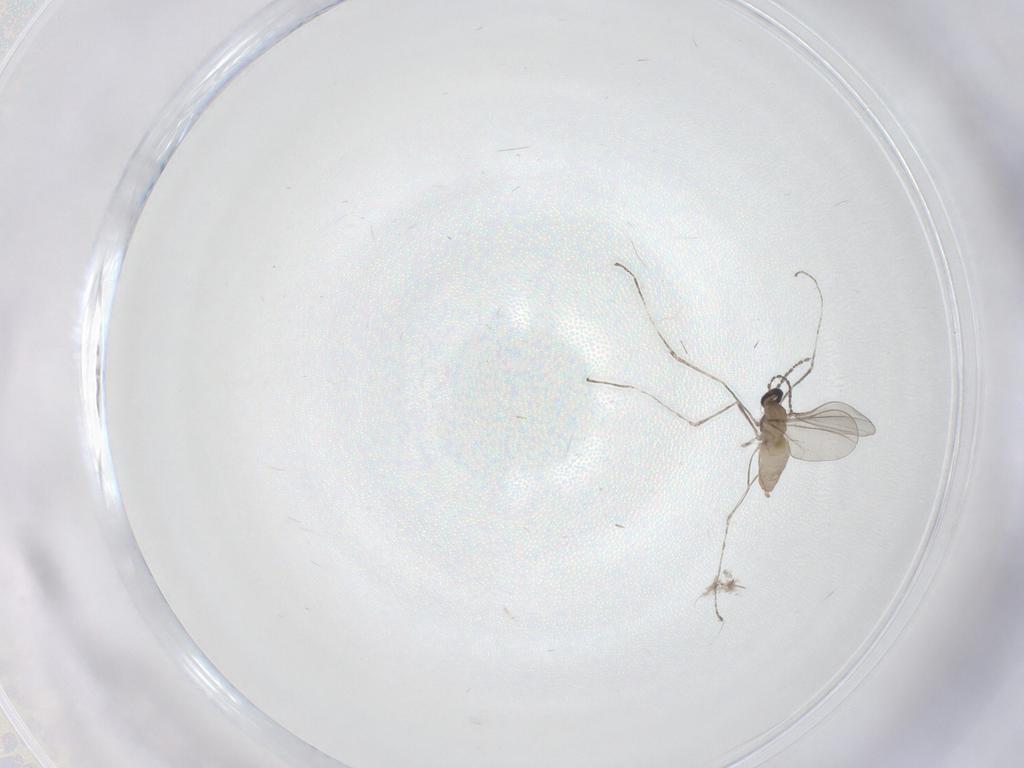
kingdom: Animalia
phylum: Arthropoda
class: Insecta
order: Diptera
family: Cecidomyiidae
